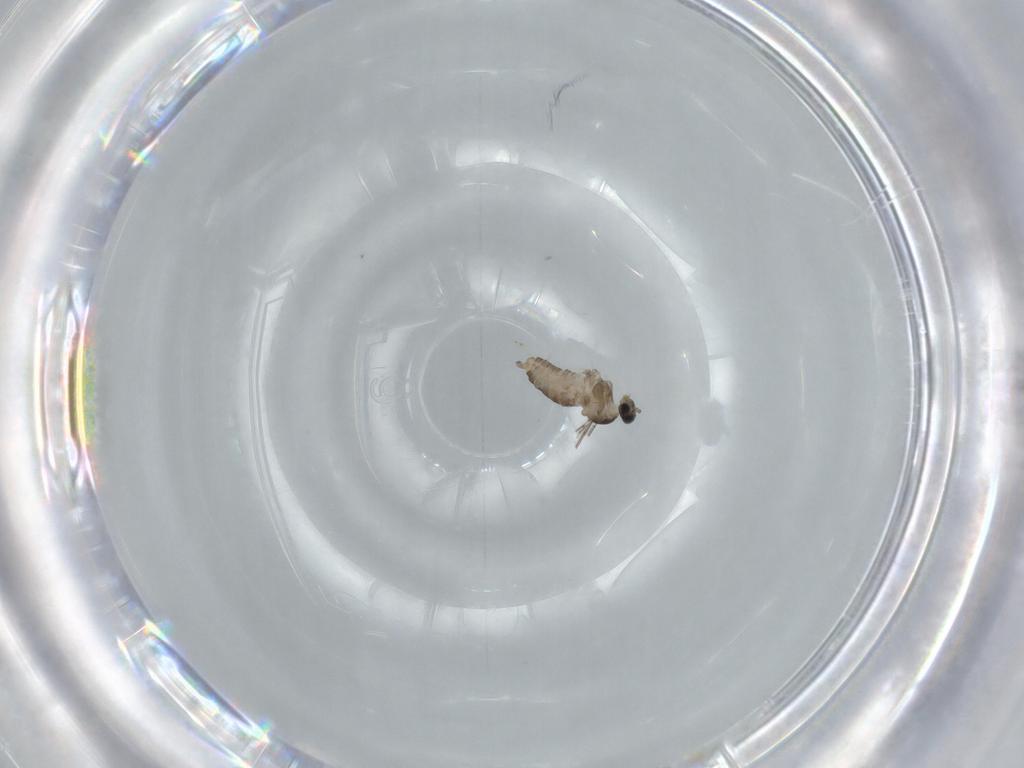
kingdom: Animalia
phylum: Arthropoda
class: Insecta
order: Diptera
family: Cecidomyiidae
